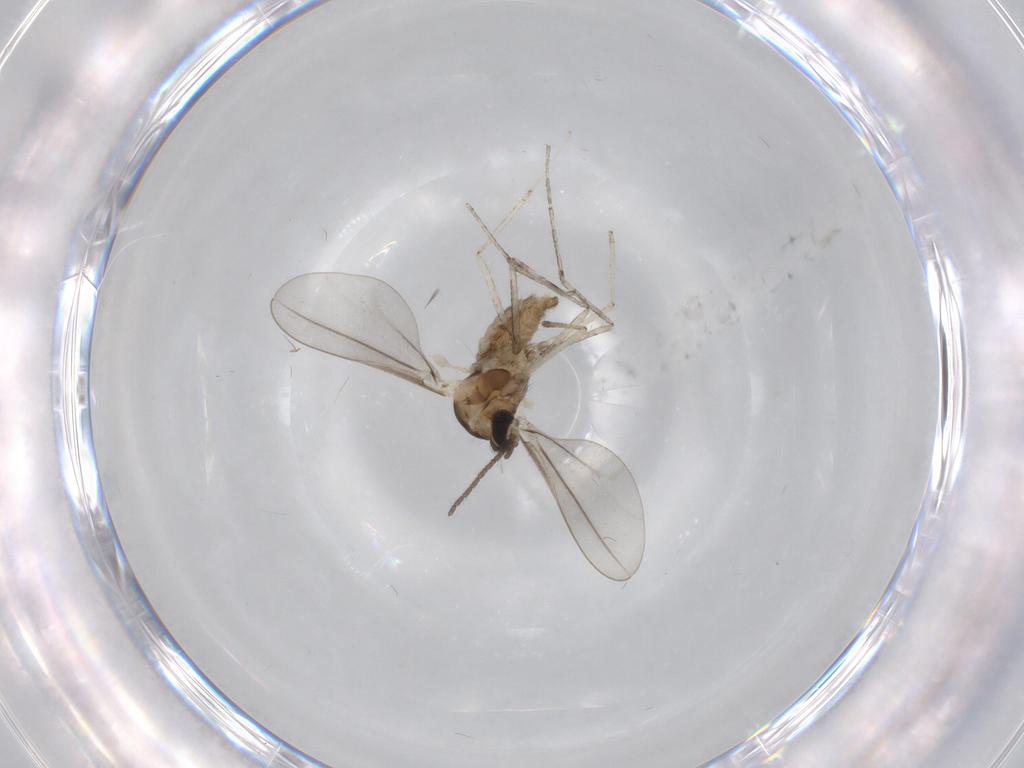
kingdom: Animalia
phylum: Arthropoda
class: Insecta
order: Diptera
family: Cecidomyiidae
